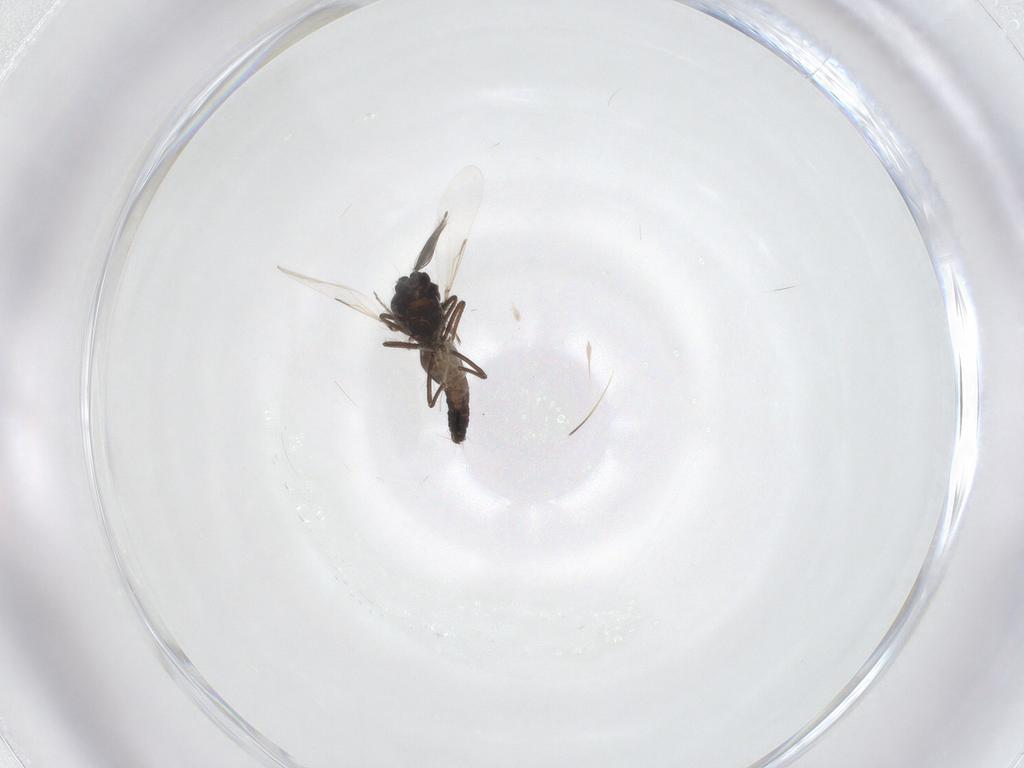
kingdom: Animalia
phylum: Arthropoda
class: Insecta
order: Diptera
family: Ceratopogonidae
